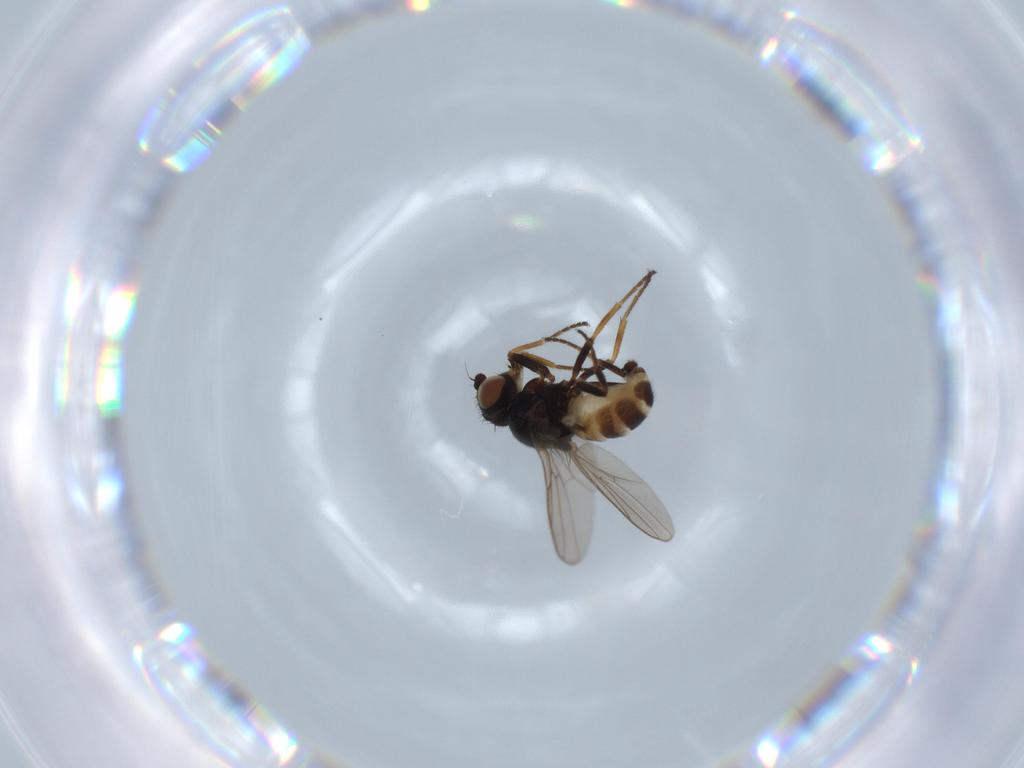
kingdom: Animalia
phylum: Arthropoda
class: Insecta
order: Diptera
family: Chloropidae
